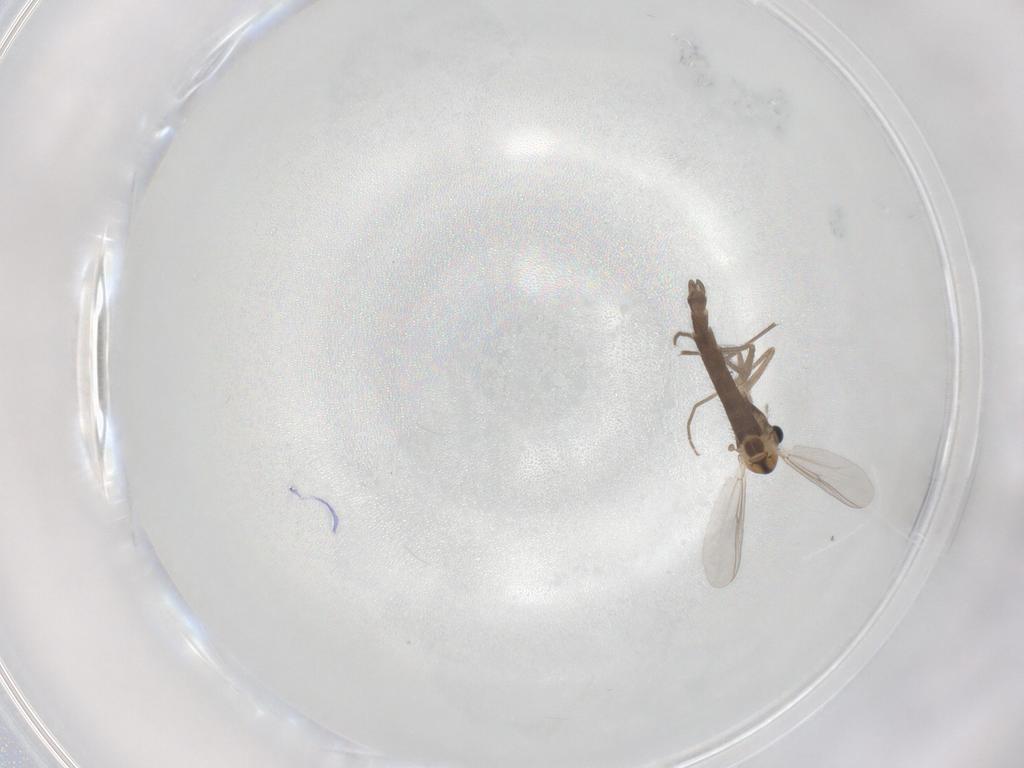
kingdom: Animalia
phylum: Arthropoda
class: Insecta
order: Diptera
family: Chironomidae
